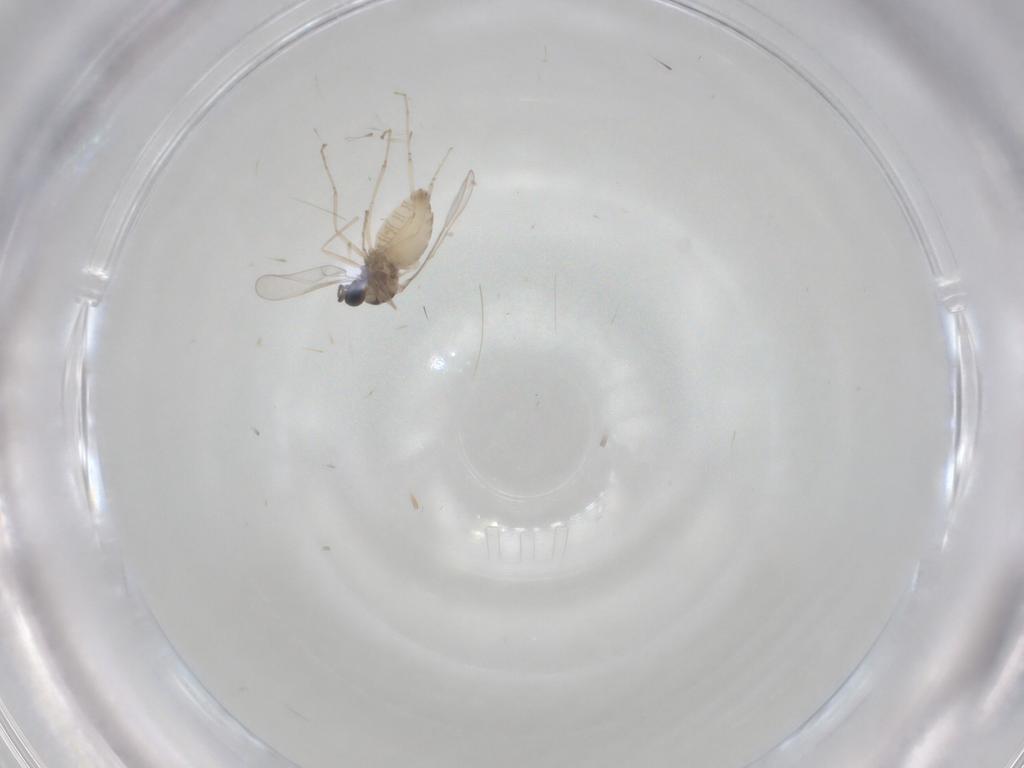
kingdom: Animalia
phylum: Arthropoda
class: Insecta
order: Diptera
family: Cecidomyiidae
